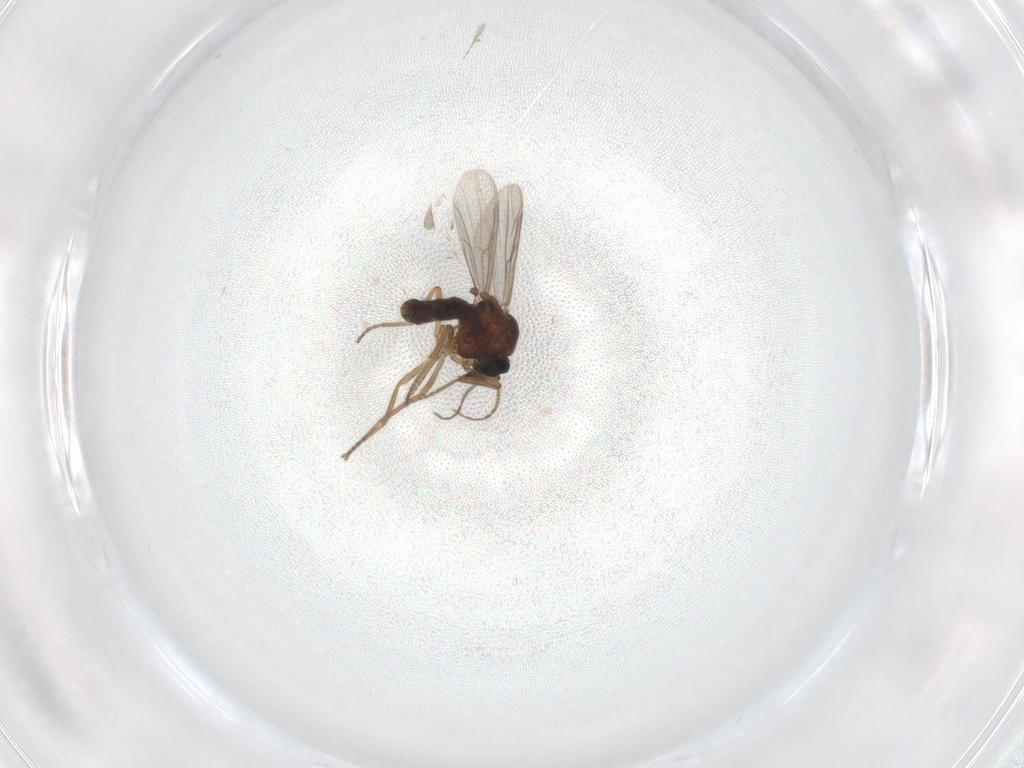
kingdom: Animalia
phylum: Arthropoda
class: Insecta
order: Diptera
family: Ceratopogonidae
